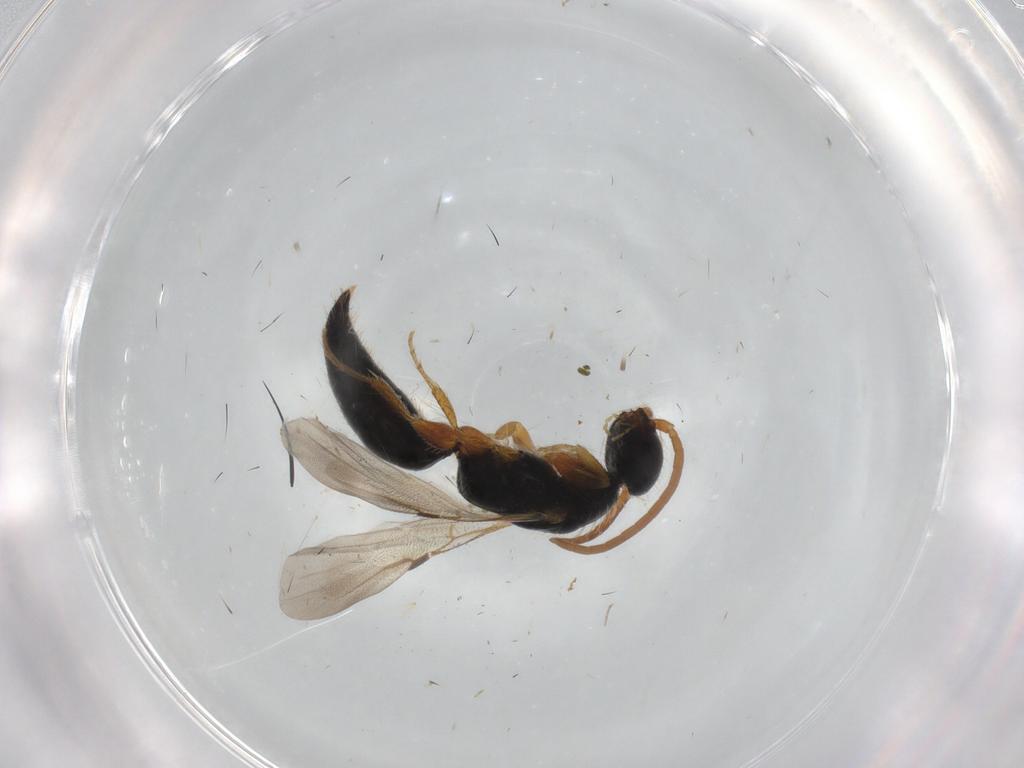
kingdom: Animalia
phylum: Arthropoda
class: Insecta
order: Hymenoptera
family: Bethylidae
